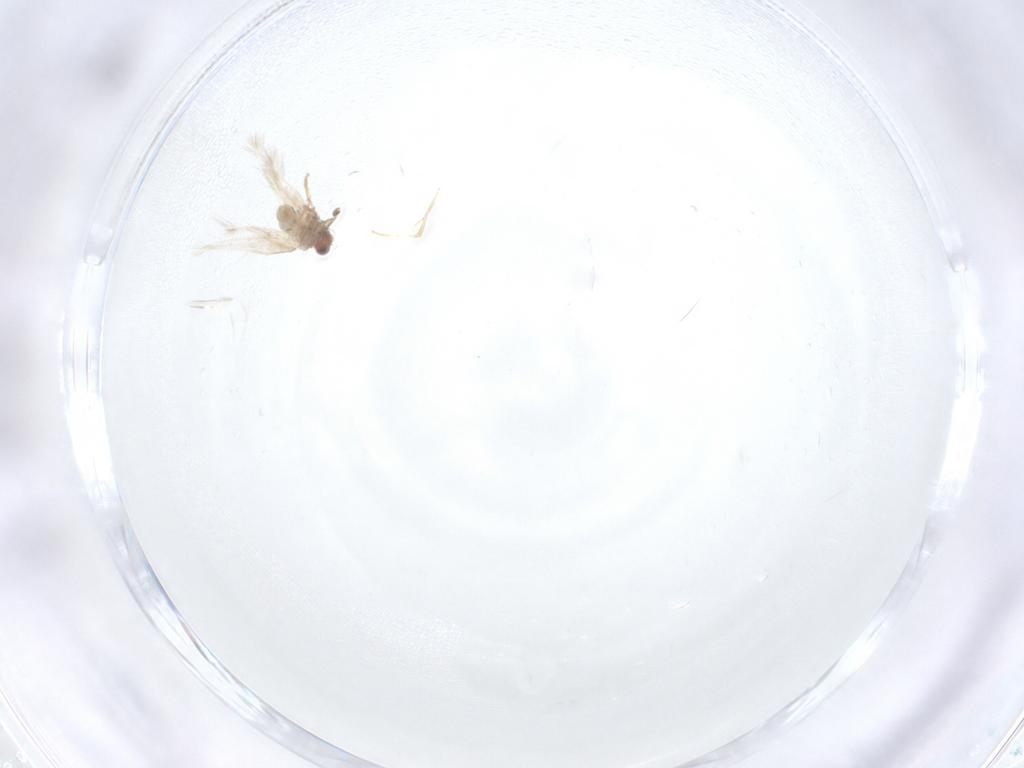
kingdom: Animalia
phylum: Arthropoda
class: Insecta
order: Lepidoptera
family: Nepticulidae
